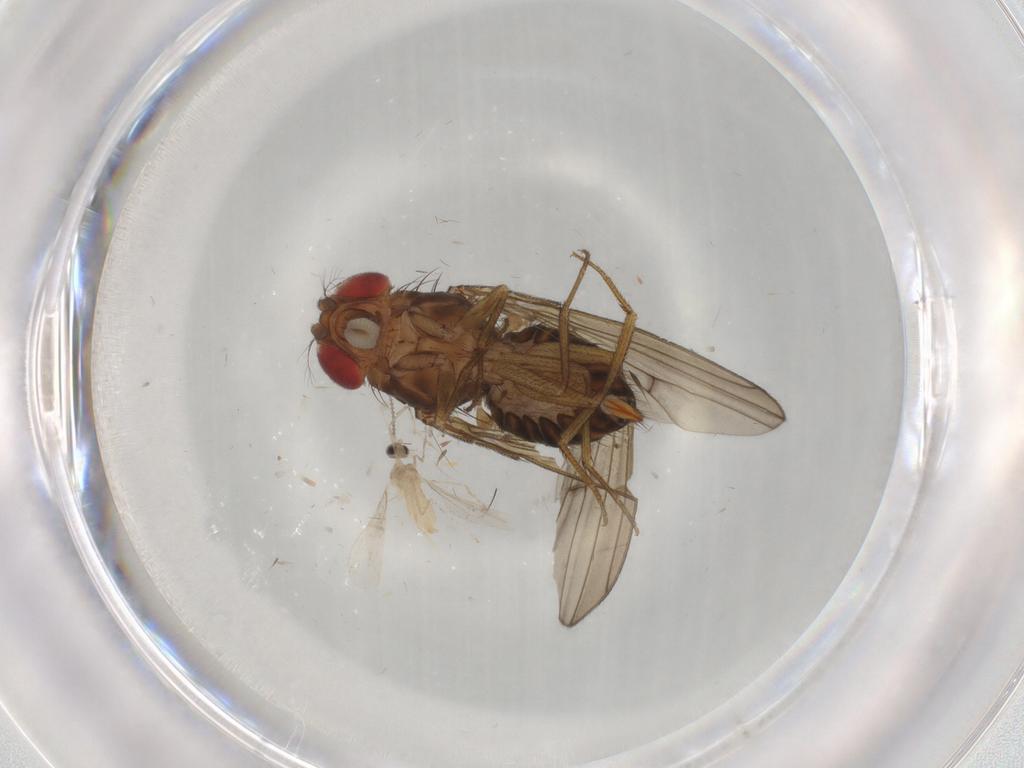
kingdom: Animalia
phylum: Arthropoda
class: Insecta
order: Diptera
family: Drosophilidae
